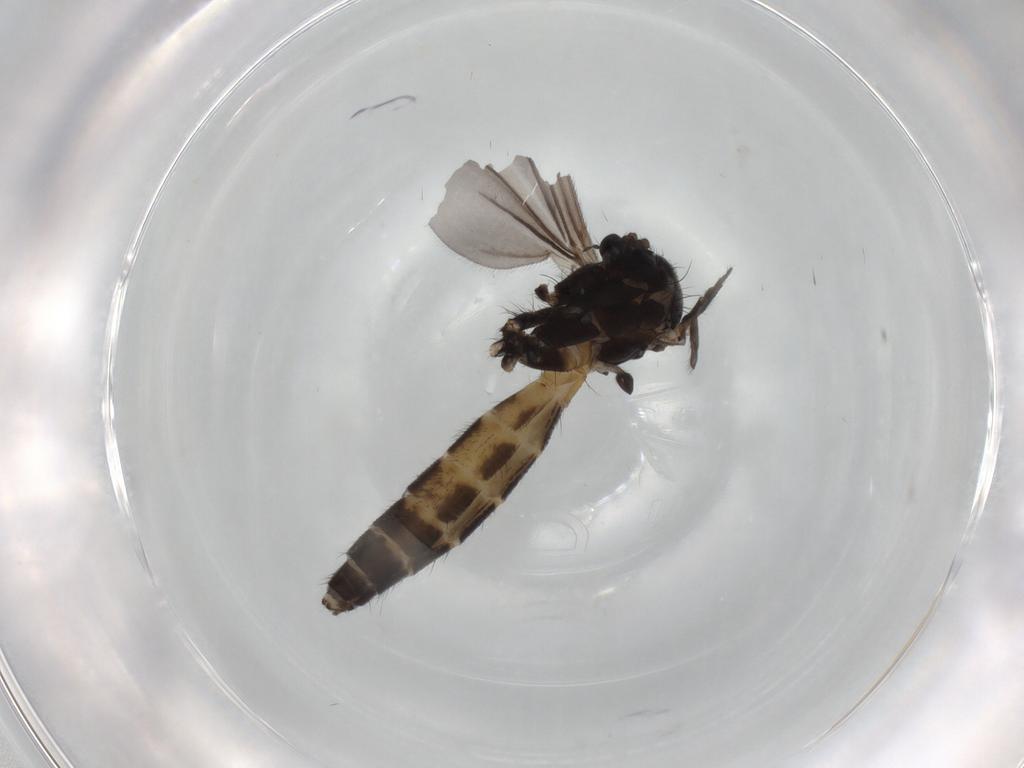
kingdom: Animalia
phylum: Arthropoda
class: Insecta
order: Diptera
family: Mycetophilidae
